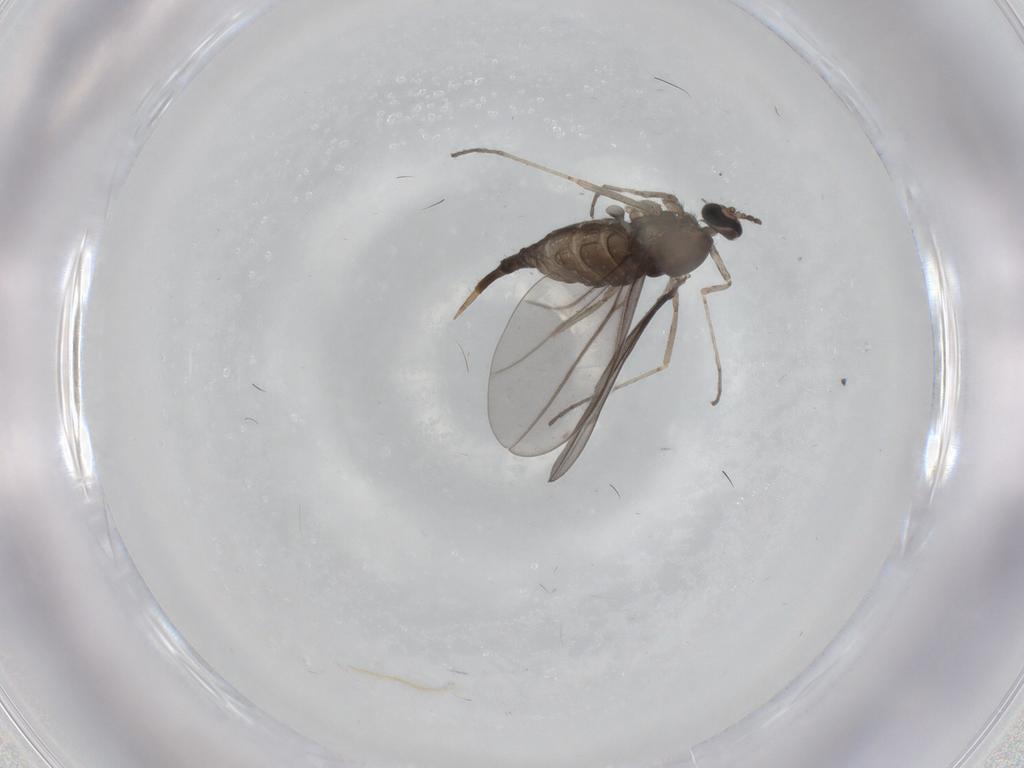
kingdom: Animalia
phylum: Arthropoda
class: Insecta
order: Diptera
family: Cecidomyiidae
